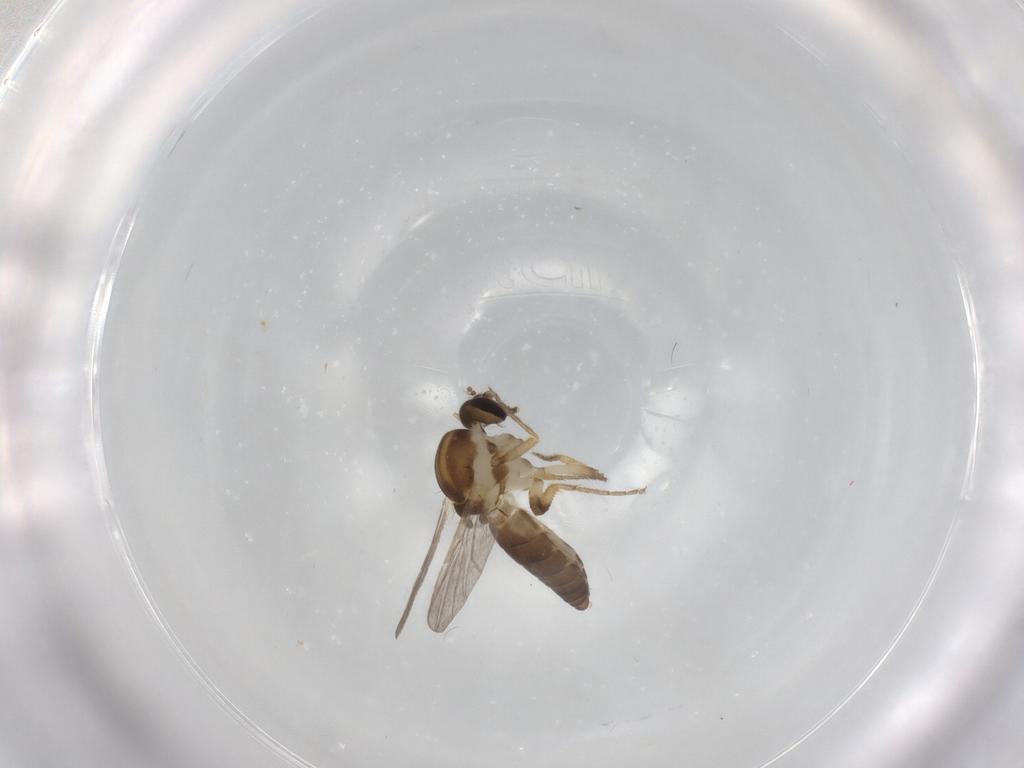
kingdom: Animalia
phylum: Arthropoda
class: Insecta
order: Diptera
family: Ceratopogonidae
